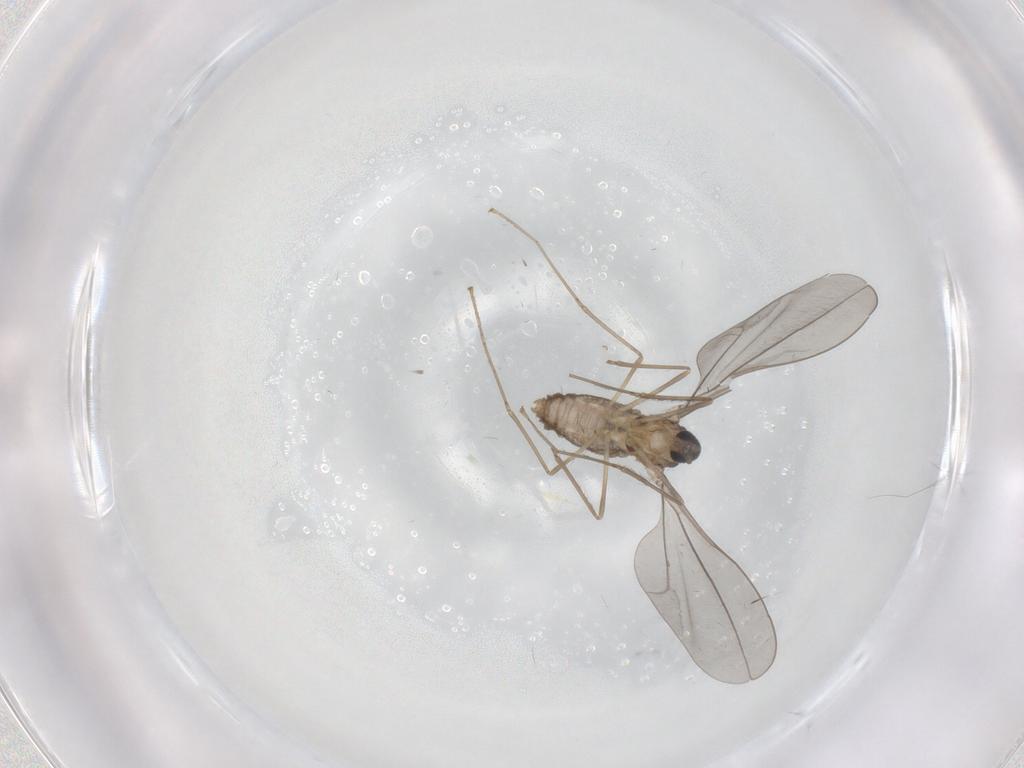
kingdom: Animalia
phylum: Arthropoda
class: Insecta
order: Diptera
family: Cecidomyiidae
